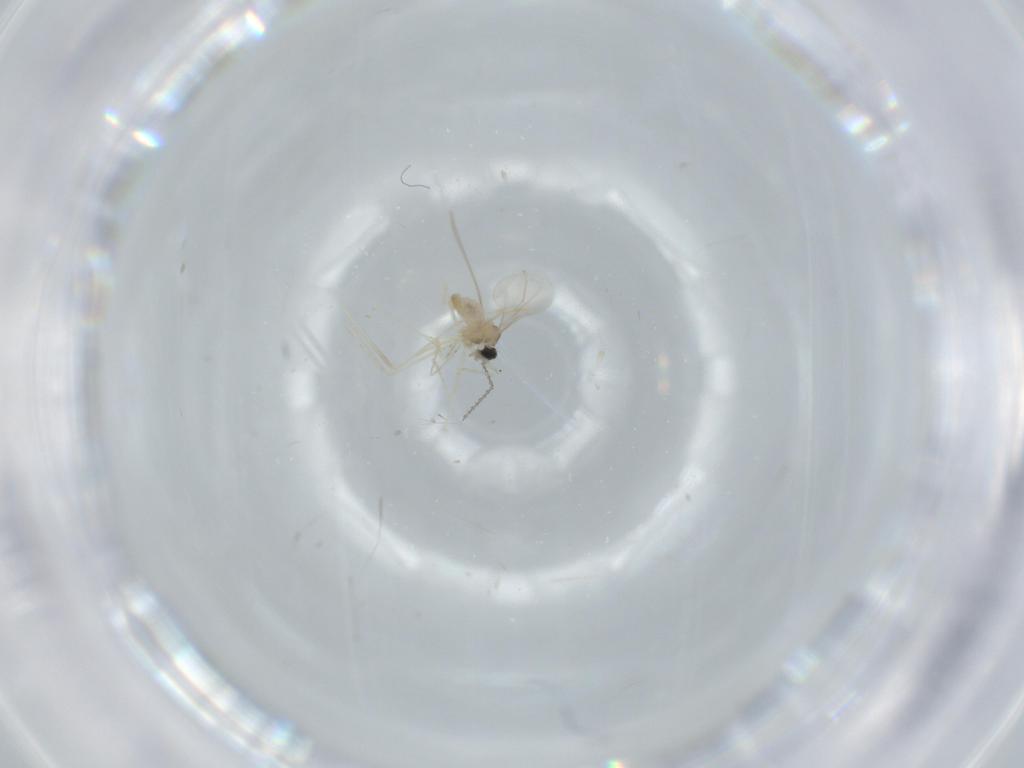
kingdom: Animalia
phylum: Arthropoda
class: Insecta
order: Diptera
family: Cecidomyiidae
